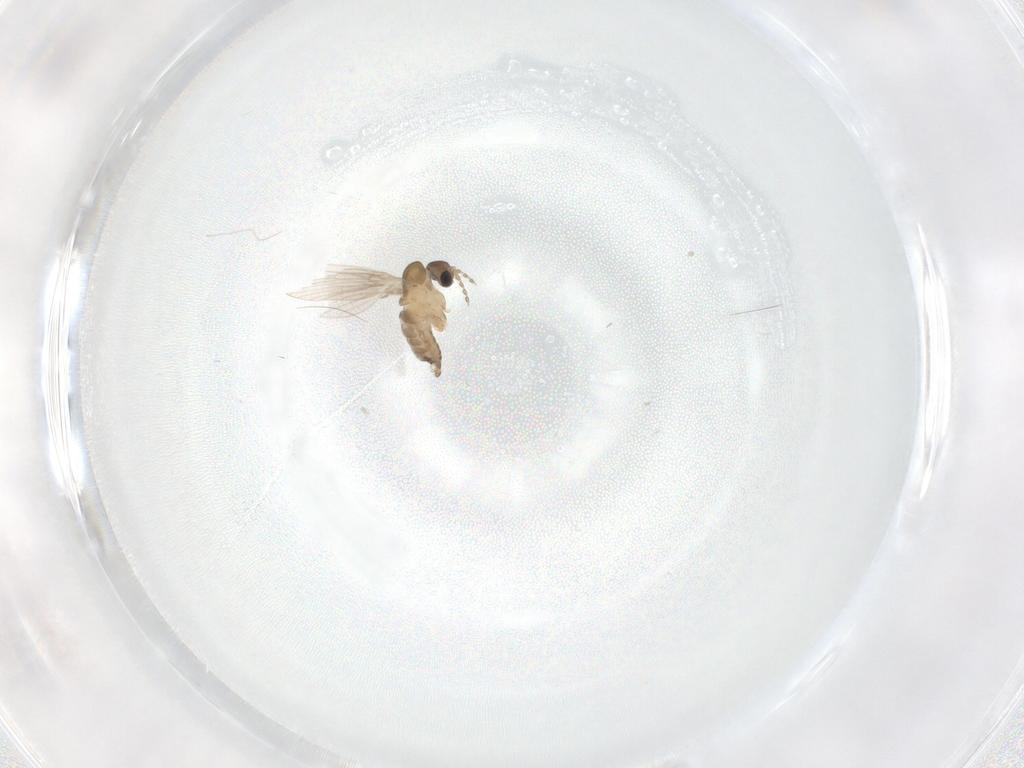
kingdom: Animalia
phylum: Arthropoda
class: Insecta
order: Diptera
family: Psychodidae
